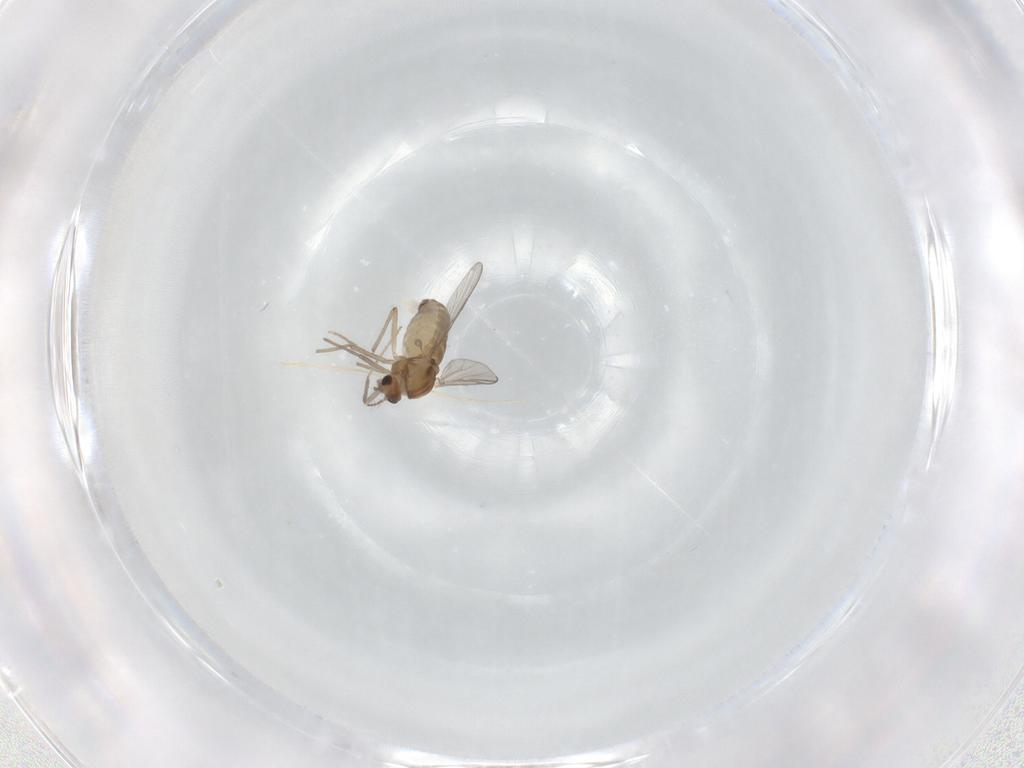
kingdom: Animalia
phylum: Arthropoda
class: Insecta
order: Diptera
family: Chironomidae
